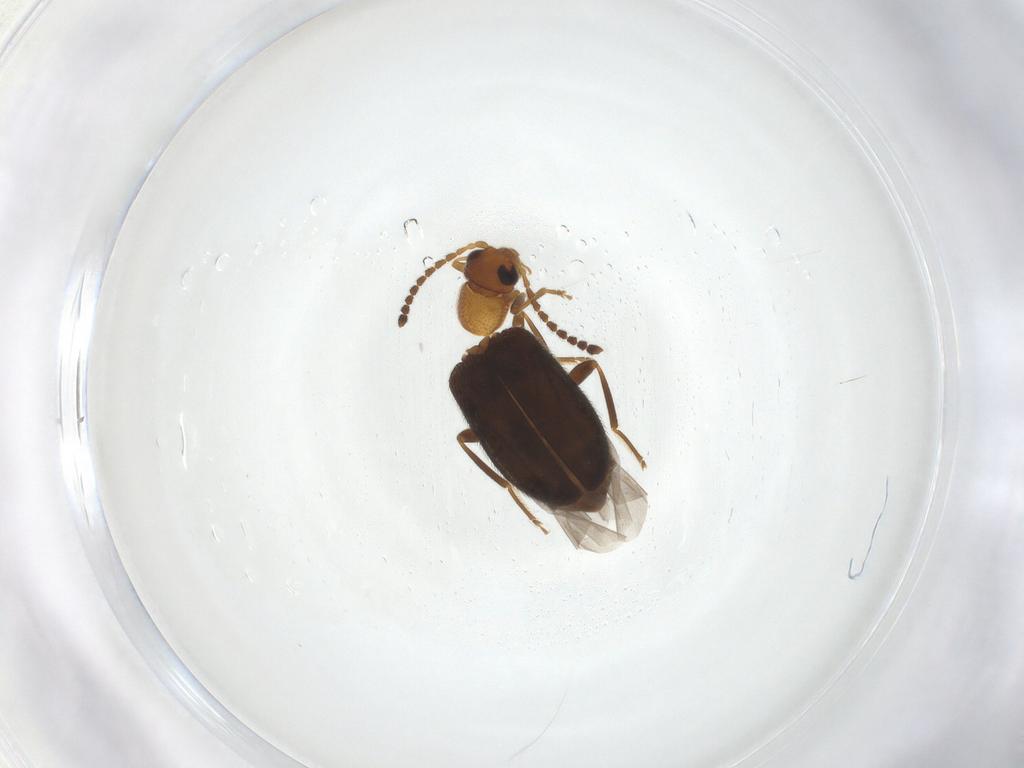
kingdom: Animalia
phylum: Arthropoda
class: Insecta
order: Coleoptera
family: Aderidae
